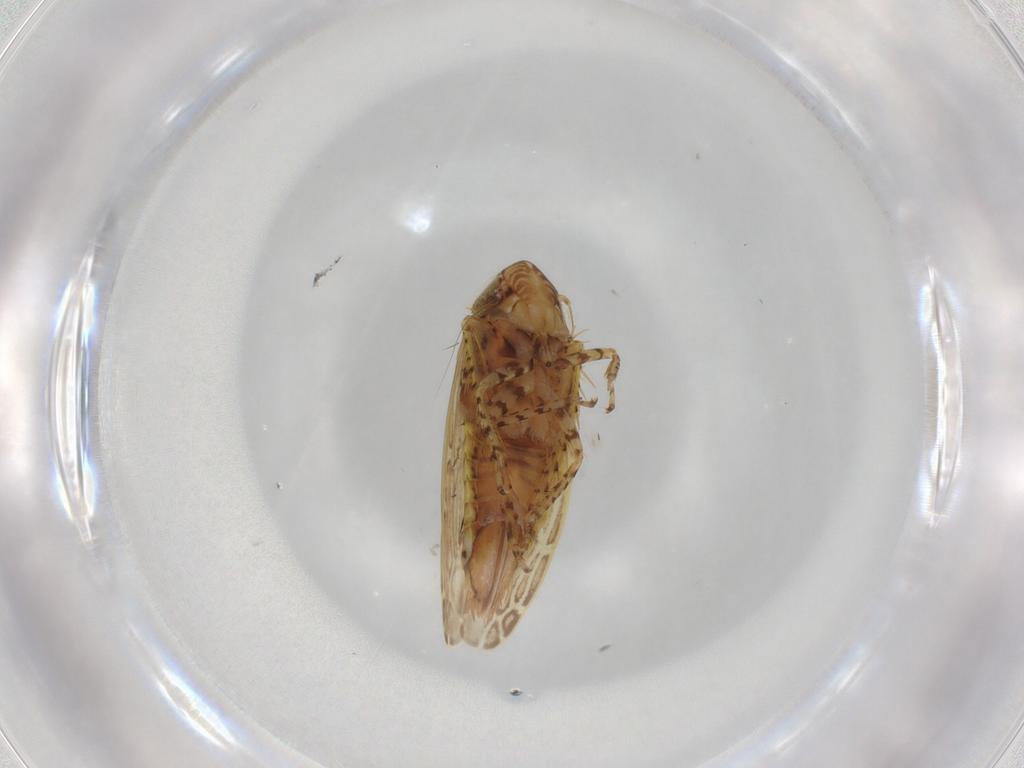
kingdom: Animalia
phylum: Arthropoda
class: Insecta
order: Hemiptera
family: Cicadellidae
